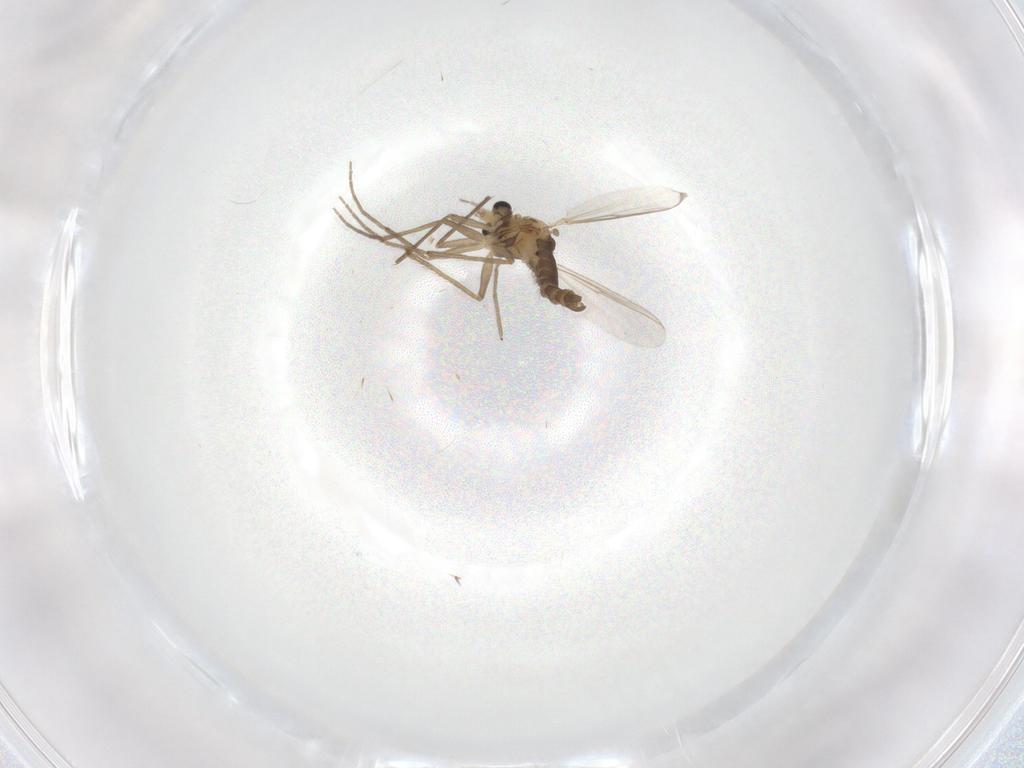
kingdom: Animalia
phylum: Arthropoda
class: Insecta
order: Diptera
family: Chironomidae
